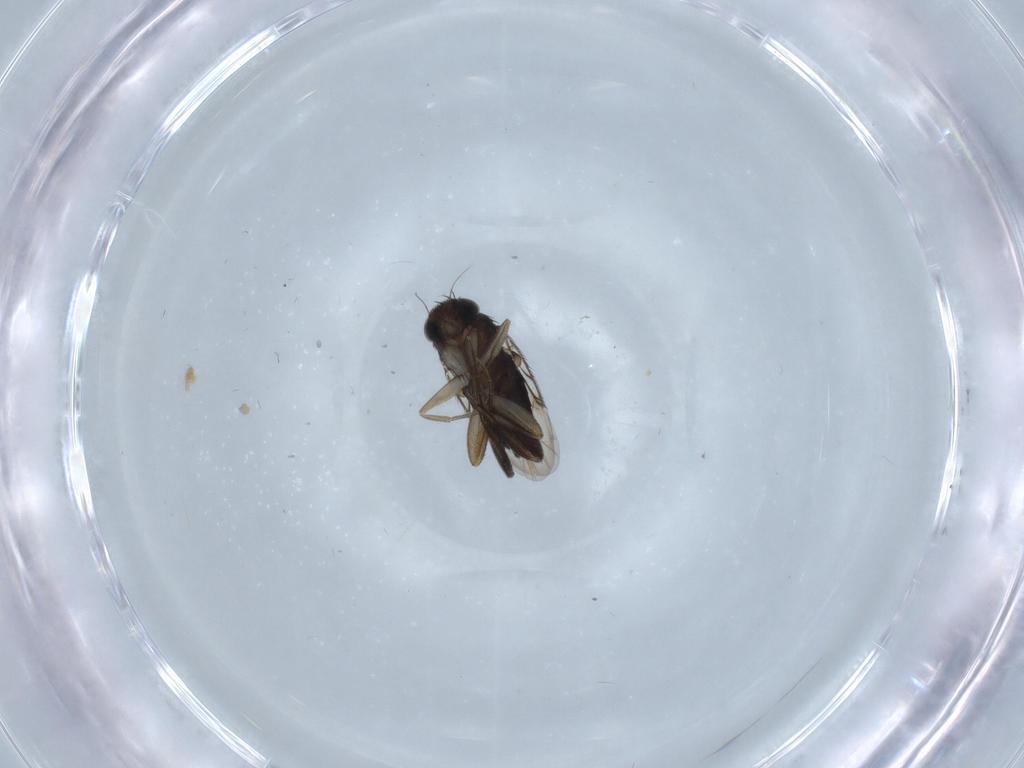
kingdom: Animalia
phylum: Arthropoda
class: Insecta
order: Diptera
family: Phoridae
